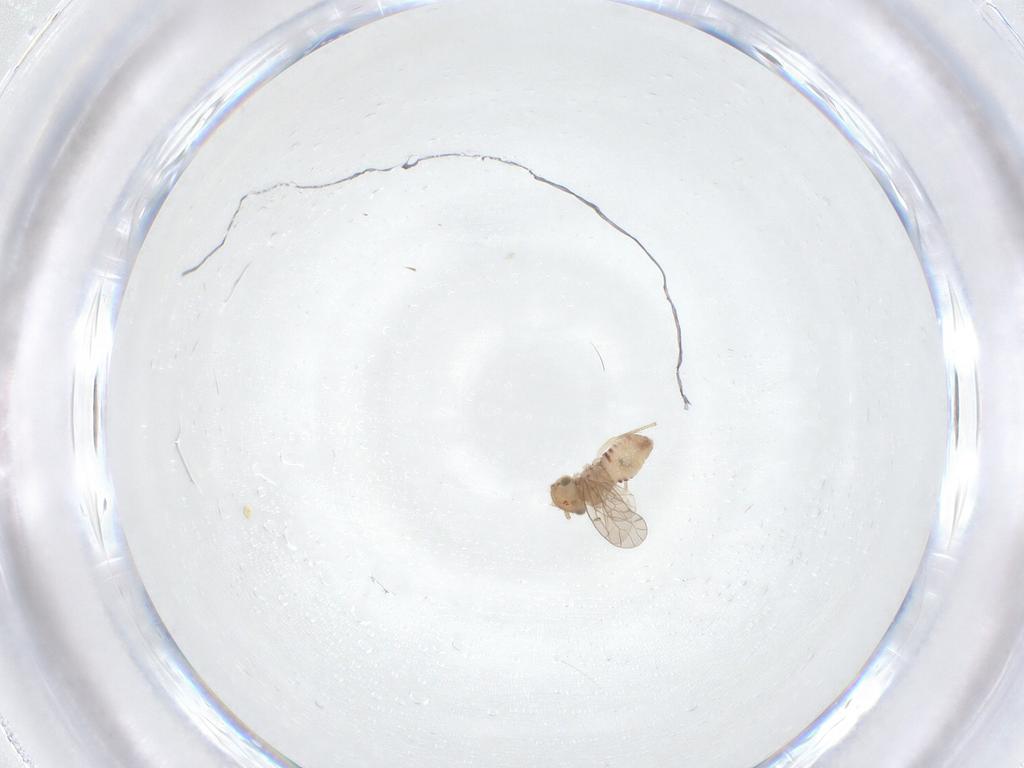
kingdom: Animalia
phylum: Arthropoda
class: Insecta
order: Psocodea
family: Ectopsocidae
